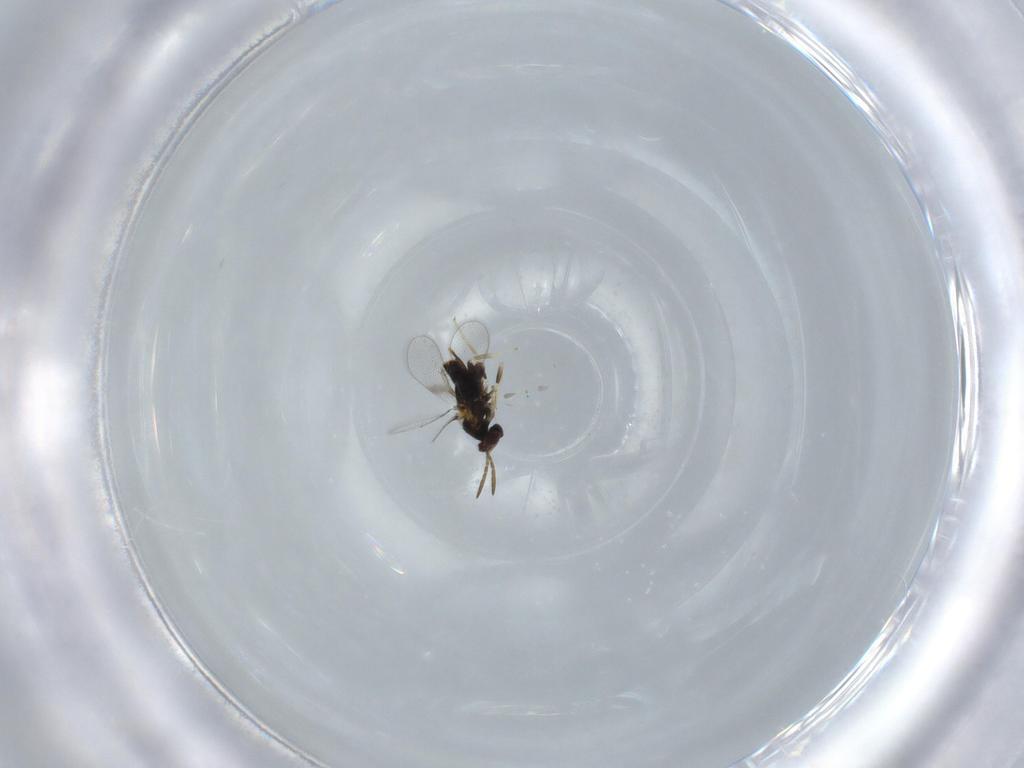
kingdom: Animalia
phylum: Arthropoda
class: Insecta
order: Hymenoptera
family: Aphelinidae
